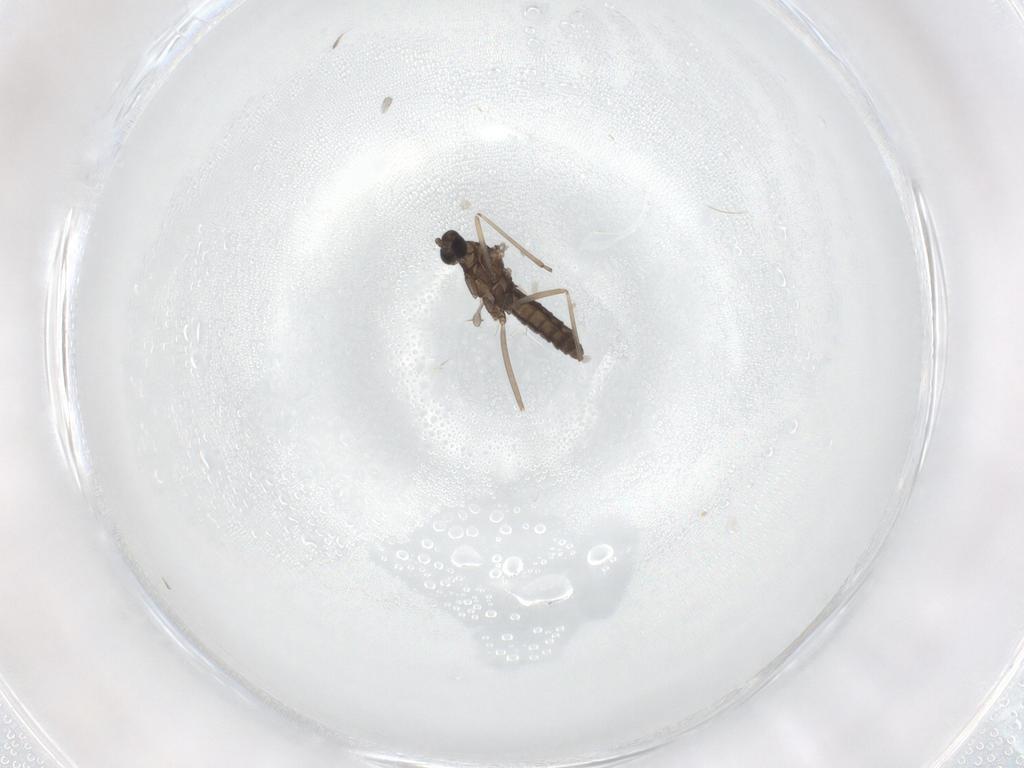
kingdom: Animalia
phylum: Arthropoda
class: Insecta
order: Diptera
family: Cecidomyiidae
